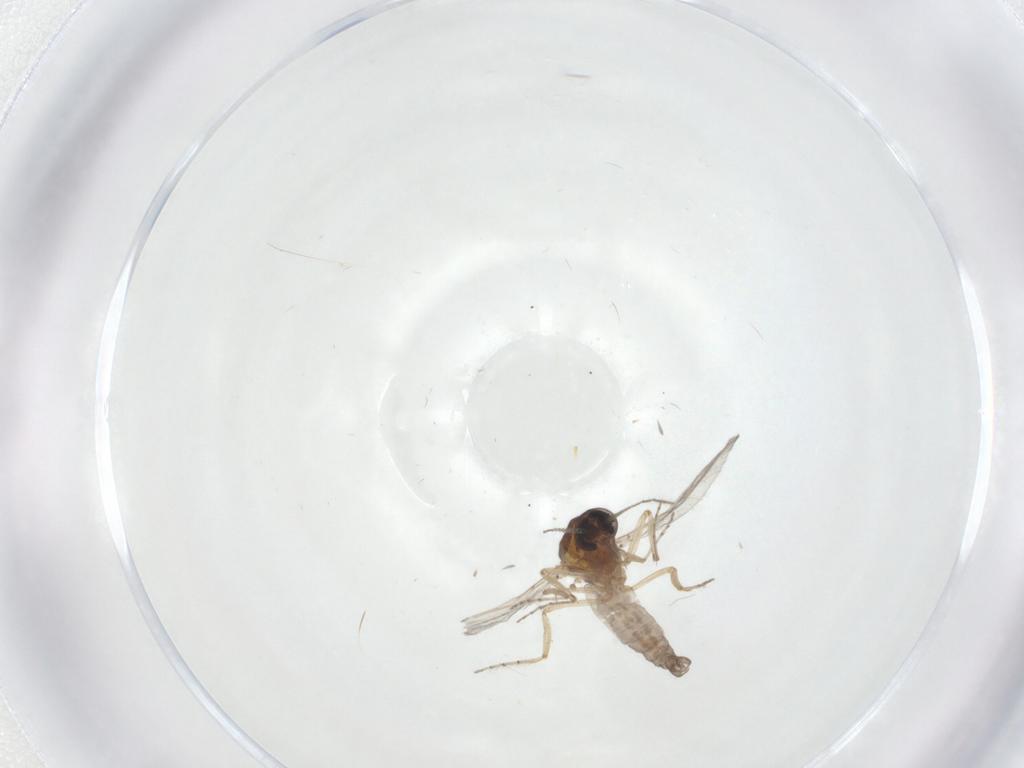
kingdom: Animalia
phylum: Arthropoda
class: Insecta
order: Diptera
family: Ceratopogonidae
